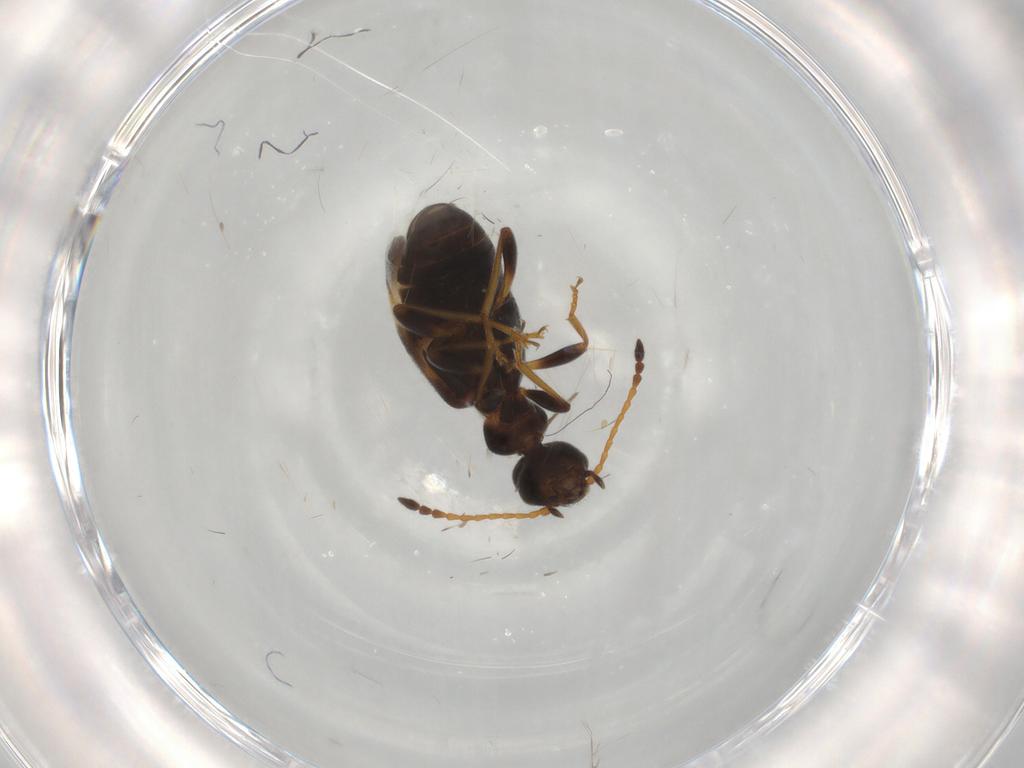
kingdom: Animalia
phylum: Arthropoda
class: Insecta
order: Coleoptera
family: Anthicidae
